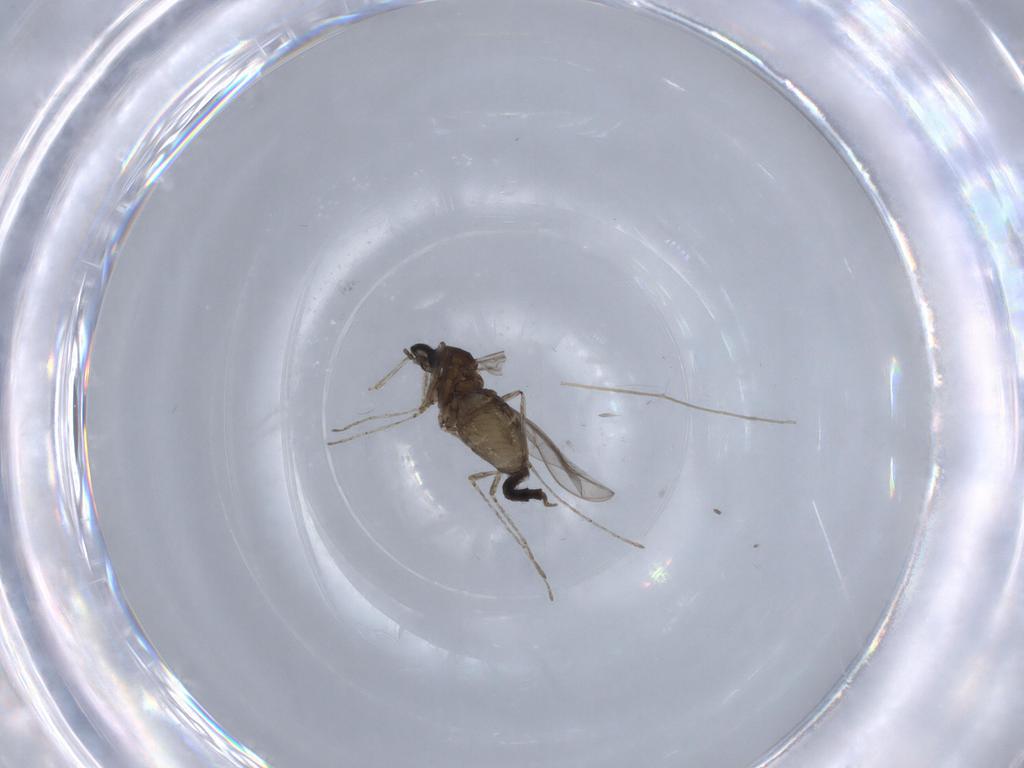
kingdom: Animalia
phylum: Arthropoda
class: Insecta
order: Diptera
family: Cecidomyiidae
